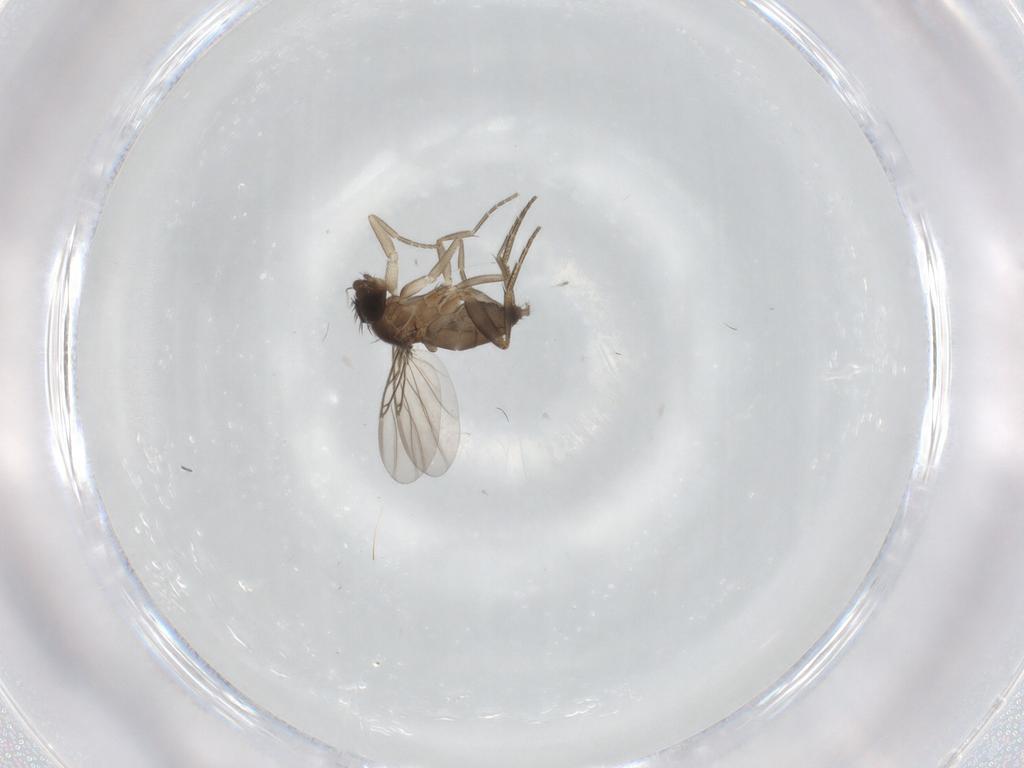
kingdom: Animalia
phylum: Arthropoda
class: Insecta
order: Diptera
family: Phoridae
